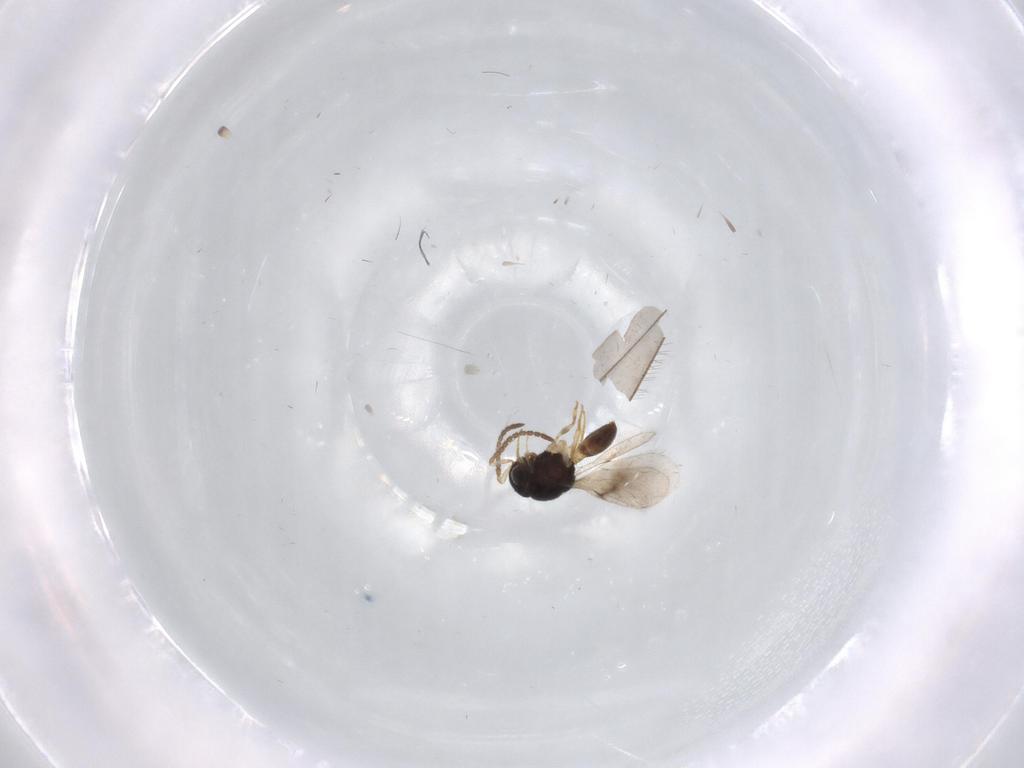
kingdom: Animalia
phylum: Arthropoda
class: Insecta
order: Hymenoptera
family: Scelionidae
